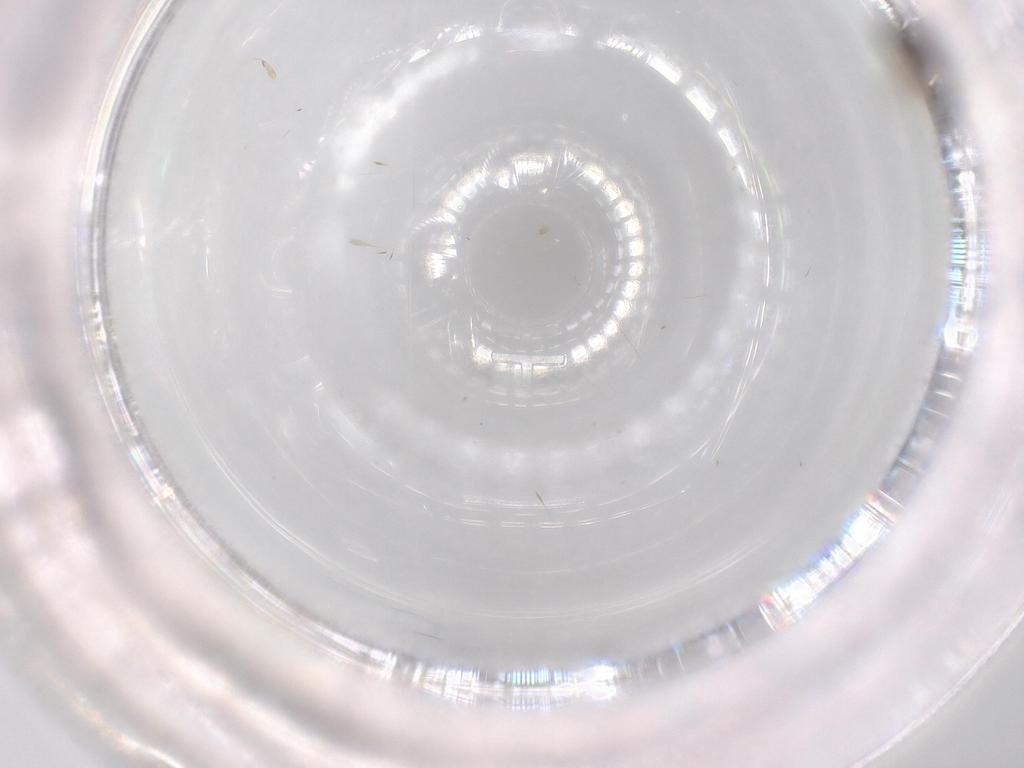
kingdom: Animalia
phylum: Arthropoda
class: Insecta
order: Diptera
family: Chironomidae
